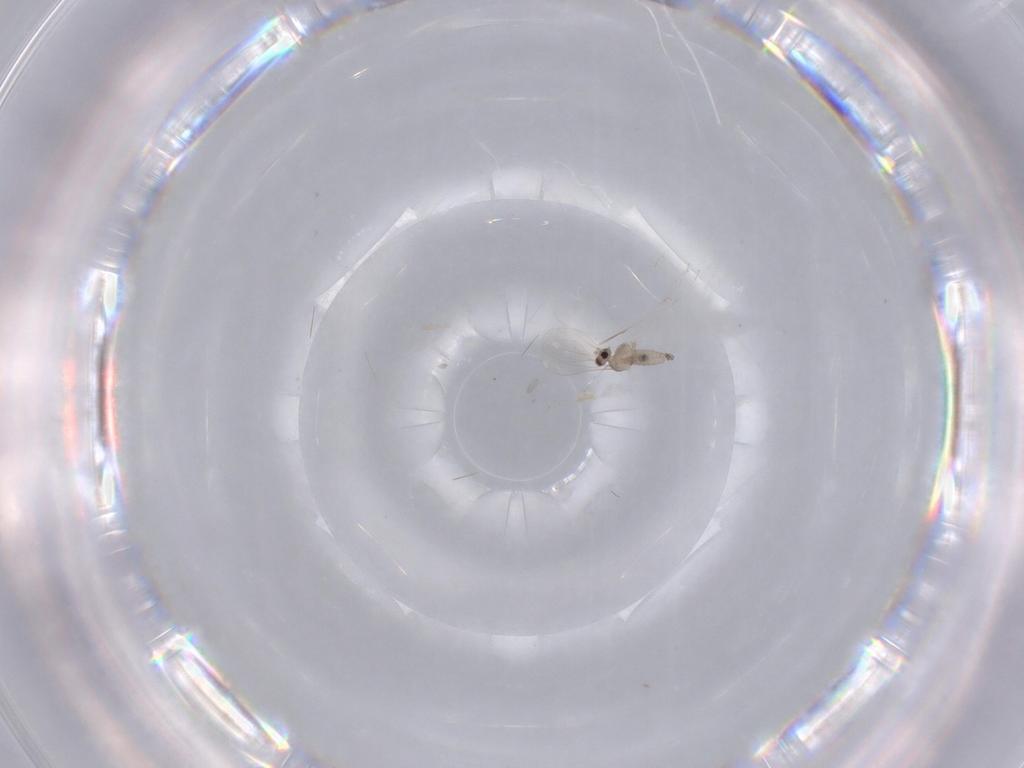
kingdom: Animalia
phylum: Arthropoda
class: Insecta
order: Diptera
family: Cecidomyiidae
